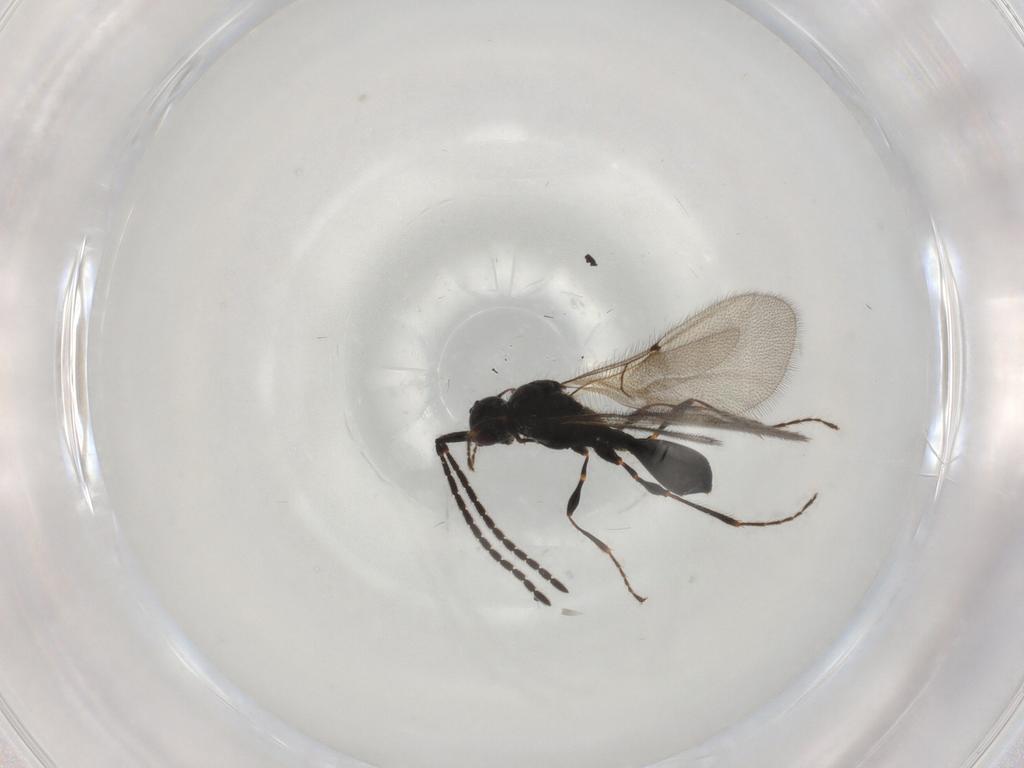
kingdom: Animalia
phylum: Arthropoda
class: Insecta
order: Hymenoptera
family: Diapriidae
